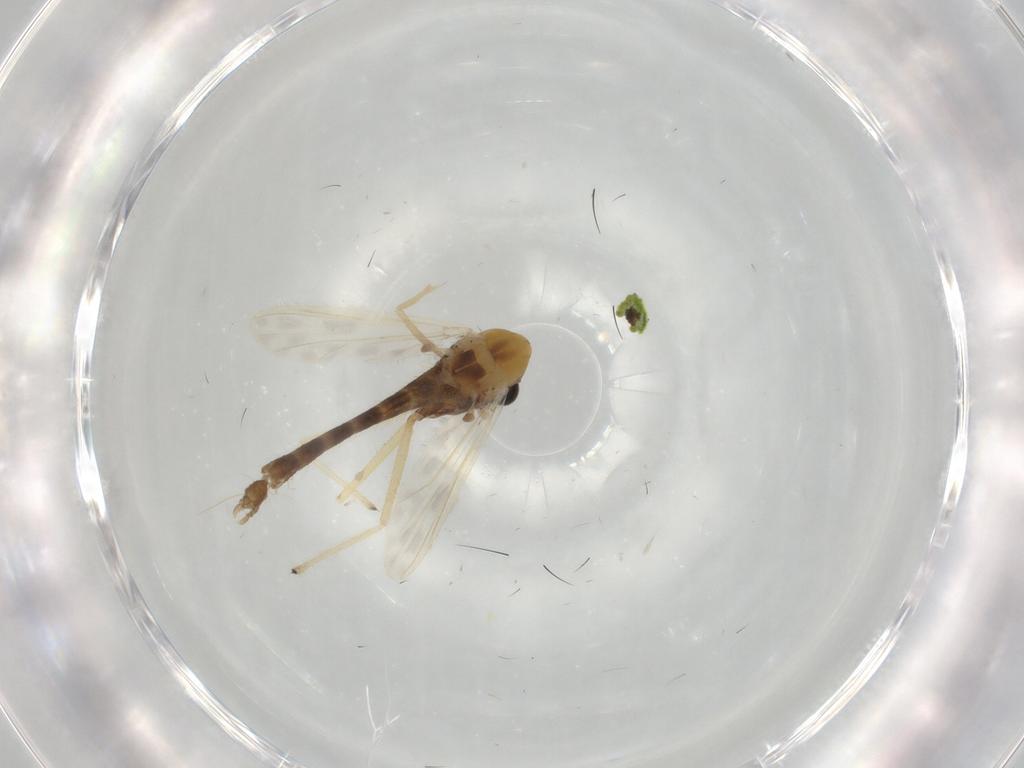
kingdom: Animalia
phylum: Arthropoda
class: Insecta
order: Diptera
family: Chironomidae
